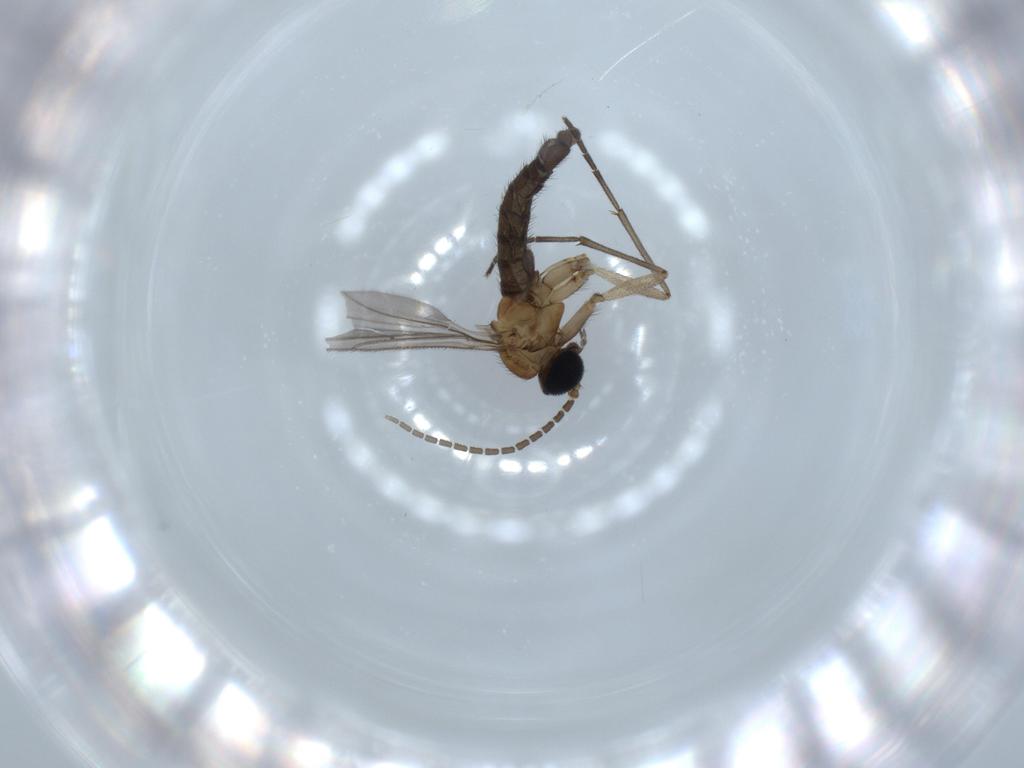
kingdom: Animalia
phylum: Arthropoda
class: Insecta
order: Diptera
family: Sciaridae
